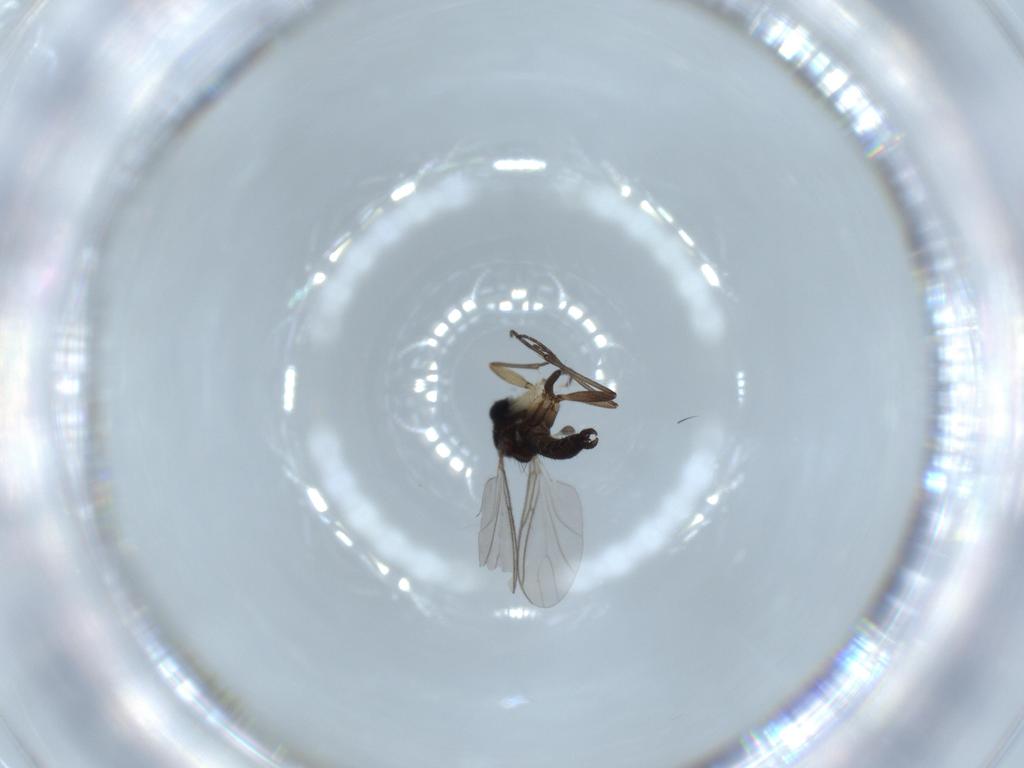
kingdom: Animalia
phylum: Arthropoda
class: Insecta
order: Diptera
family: Sciaridae
